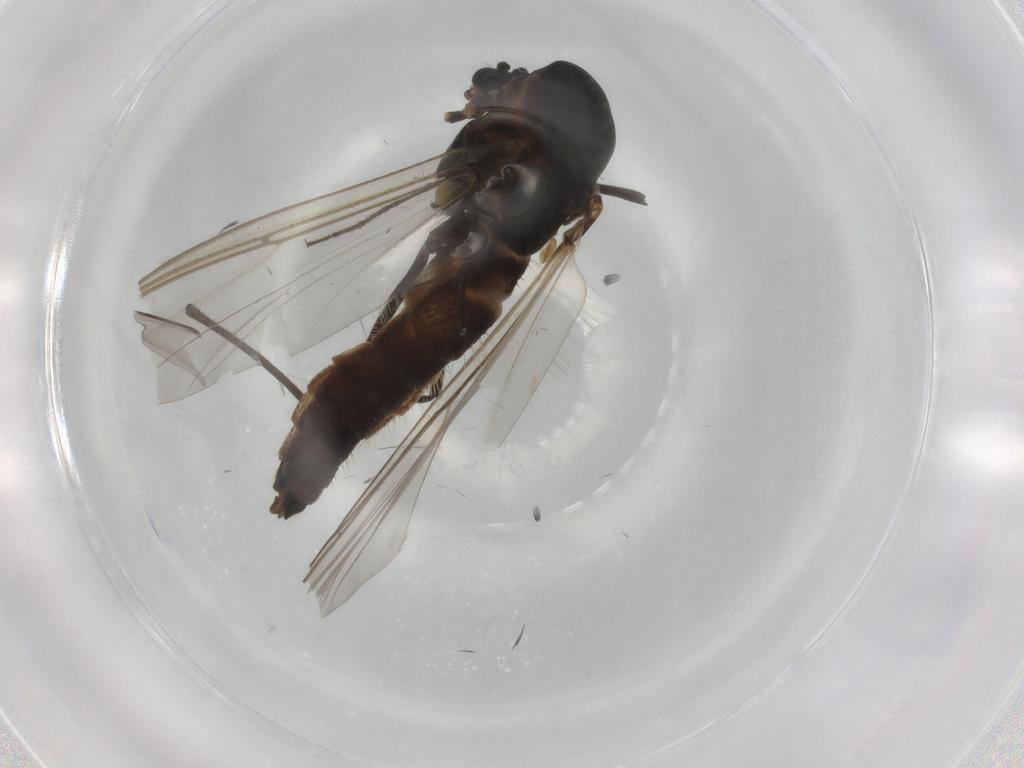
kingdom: Animalia
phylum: Arthropoda
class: Insecta
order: Diptera
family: Chironomidae
